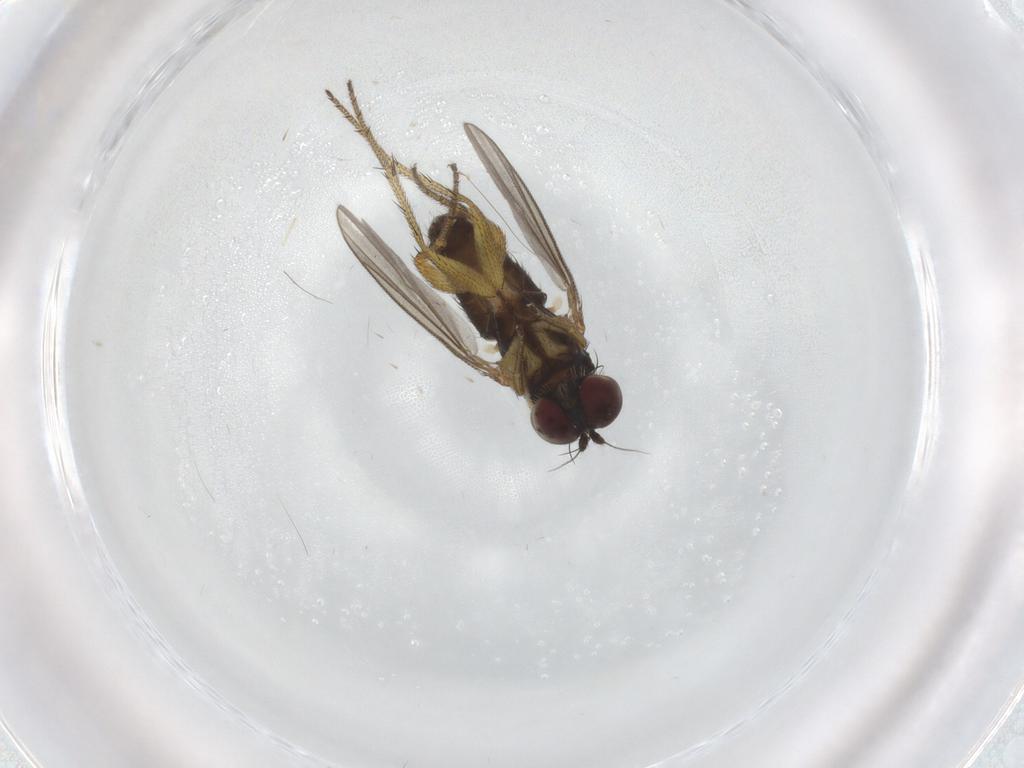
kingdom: Animalia
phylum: Arthropoda
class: Insecta
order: Diptera
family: Dolichopodidae
